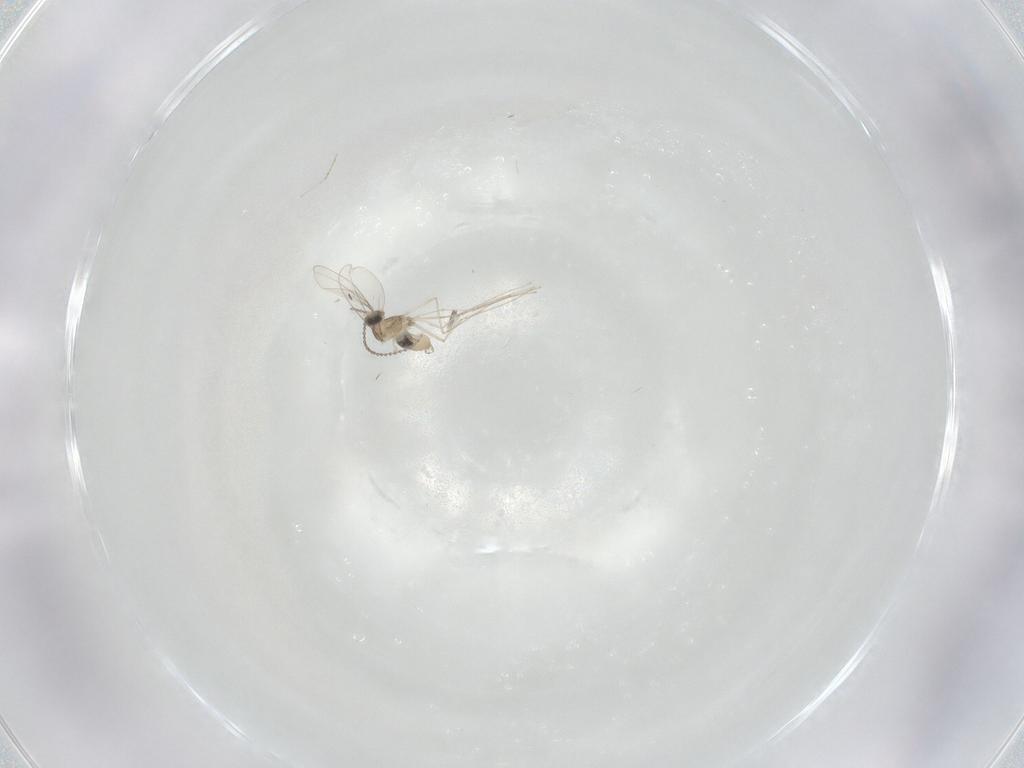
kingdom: Animalia
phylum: Arthropoda
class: Insecta
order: Diptera
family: Cecidomyiidae
